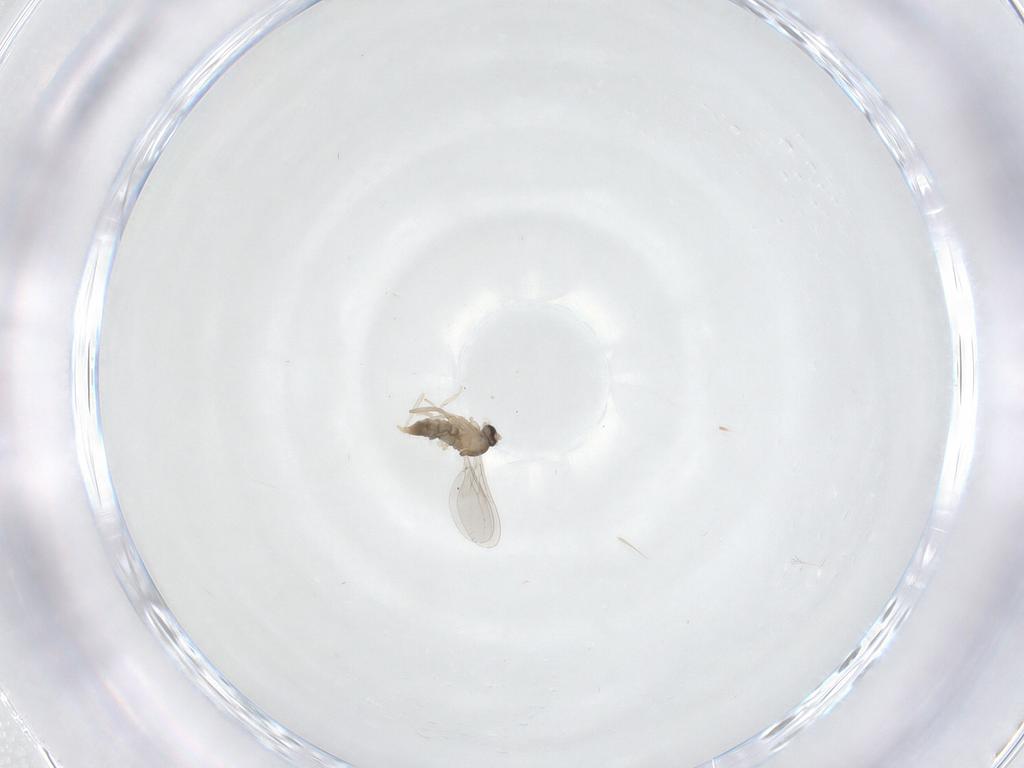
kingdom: Animalia
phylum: Arthropoda
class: Insecta
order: Diptera
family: Cecidomyiidae
